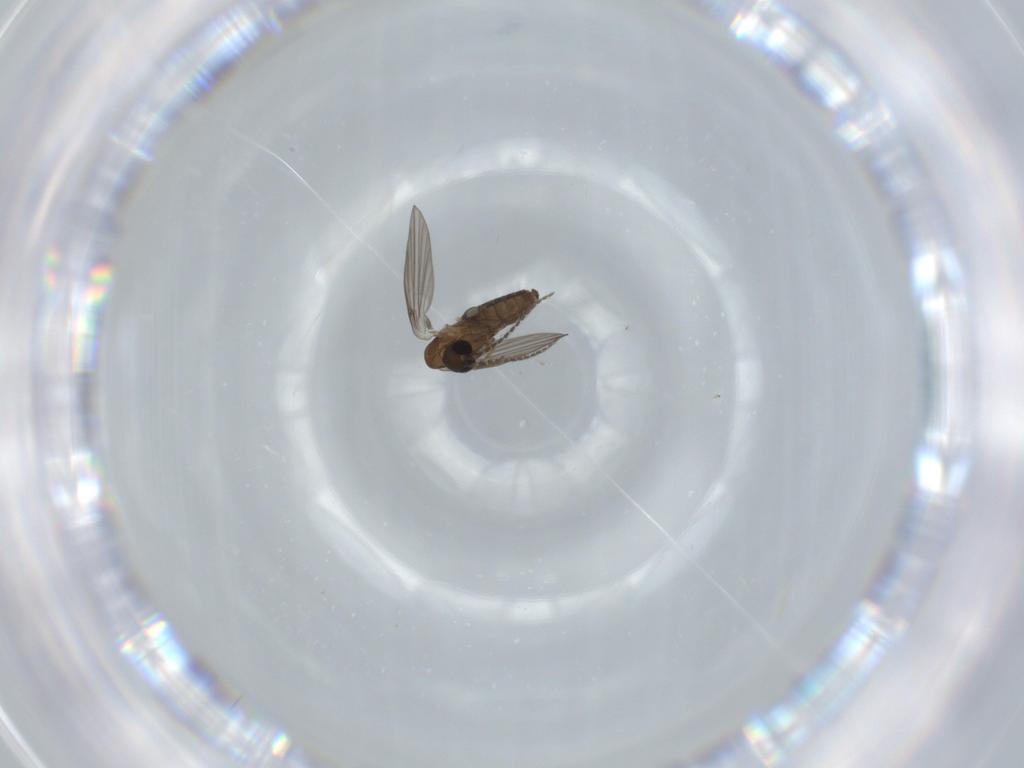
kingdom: Animalia
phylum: Arthropoda
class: Insecta
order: Diptera
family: Psychodidae
